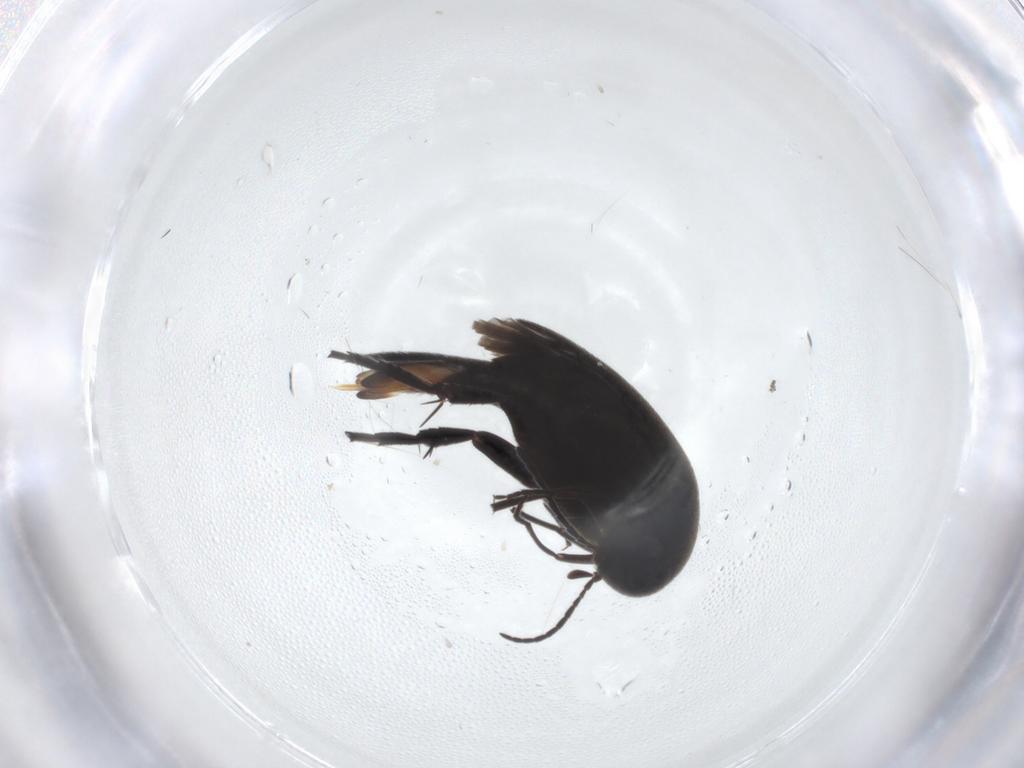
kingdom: Animalia
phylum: Arthropoda
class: Insecta
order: Coleoptera
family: Mordellidae
